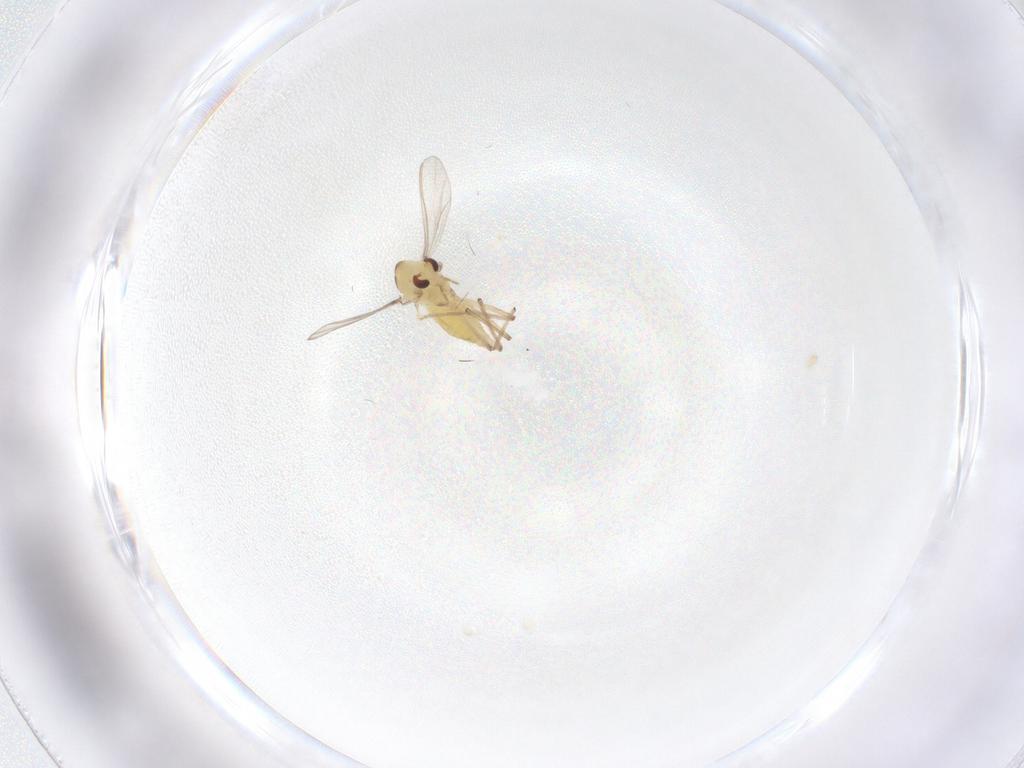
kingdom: Animalia
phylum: Arthropoda
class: Insecta
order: Diptera
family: Chironomidae
